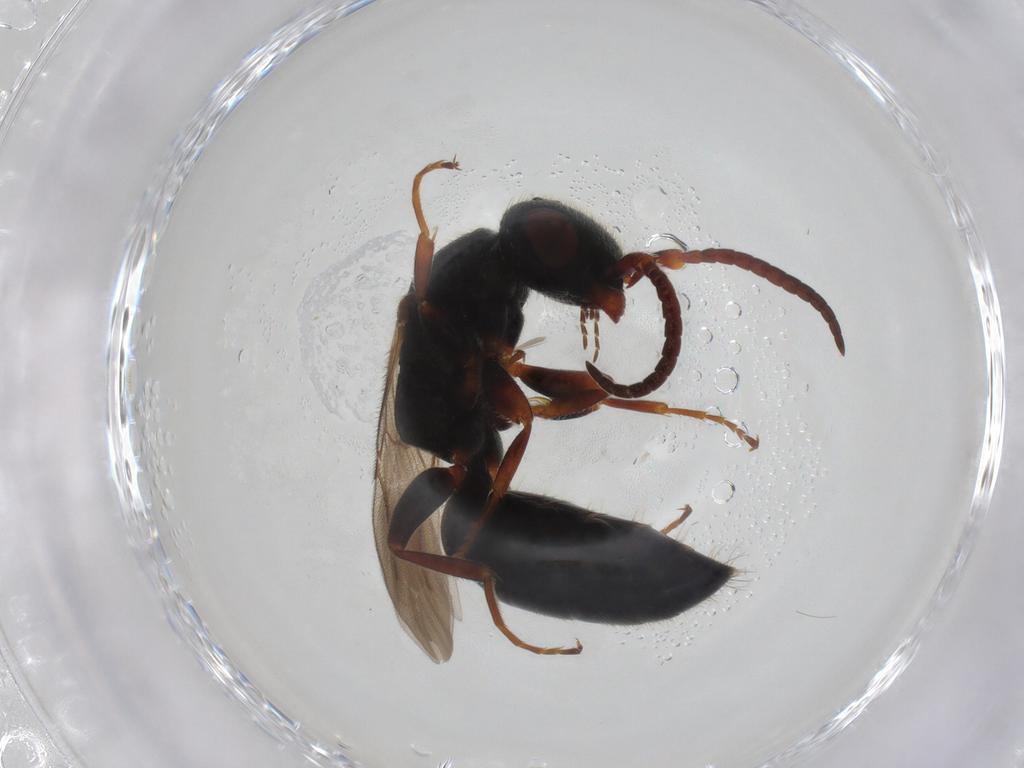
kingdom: Animalia
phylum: Arthropoda
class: Insecta
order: Hymenoptera
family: Bethylidae
